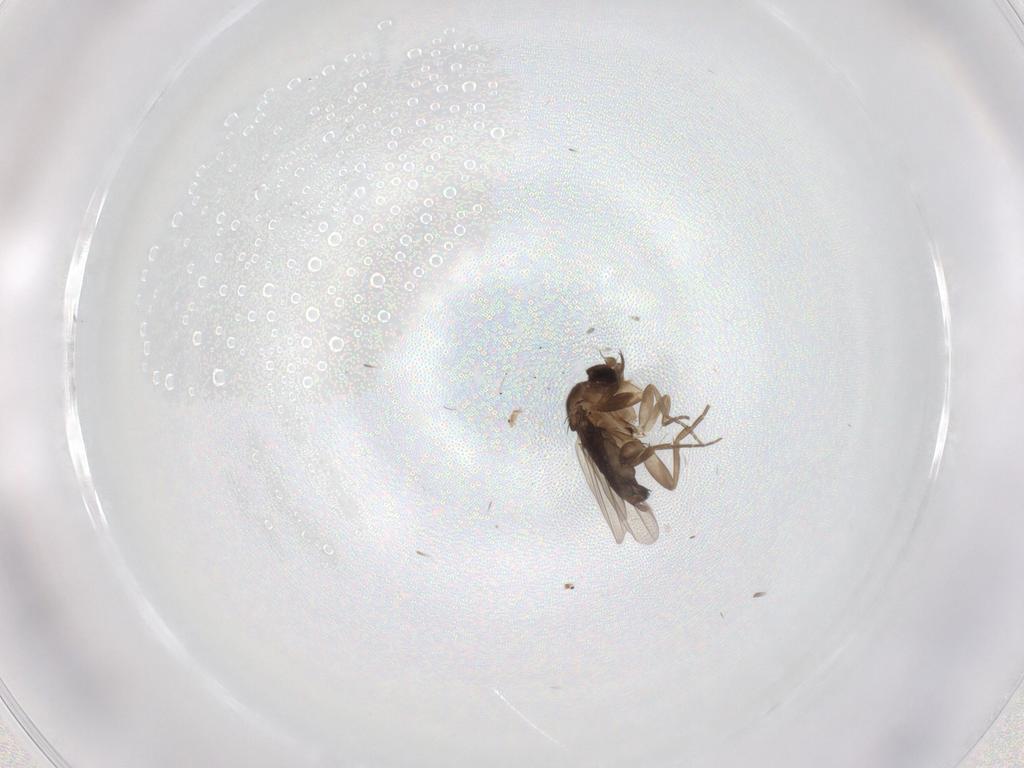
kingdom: Animalia
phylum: Arthropoda
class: Insecta
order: Diptera
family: Phoridae
